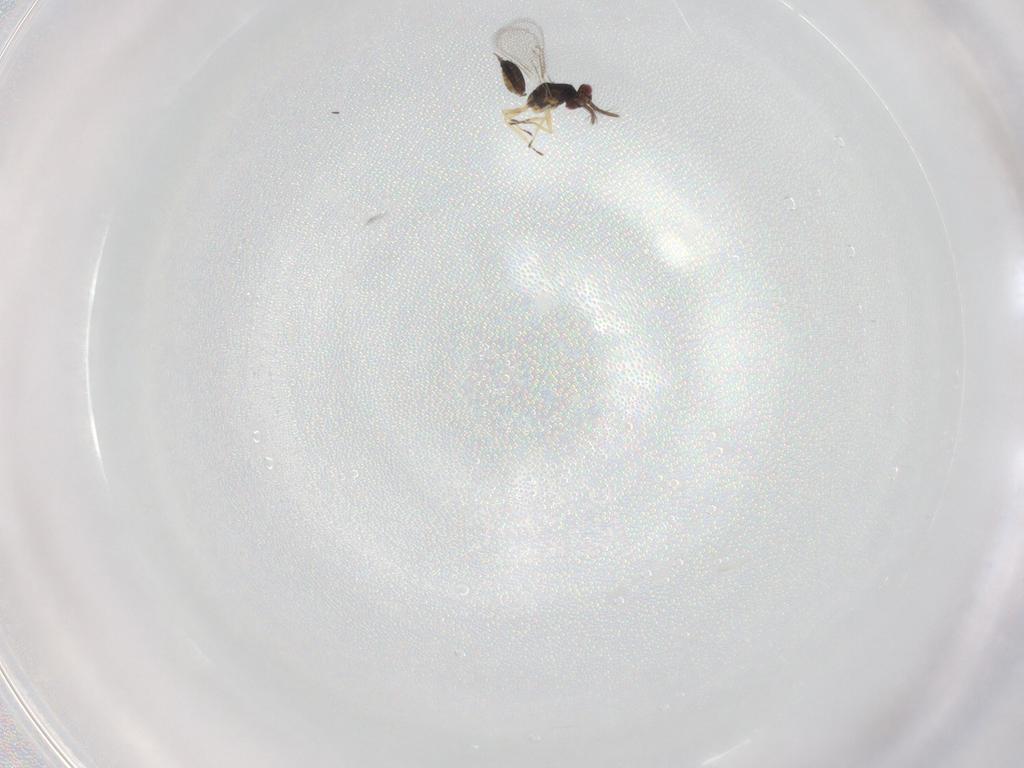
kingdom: Animalia
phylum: Arthropoda
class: Insecta
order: Hymenoptera
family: Eulophidae
